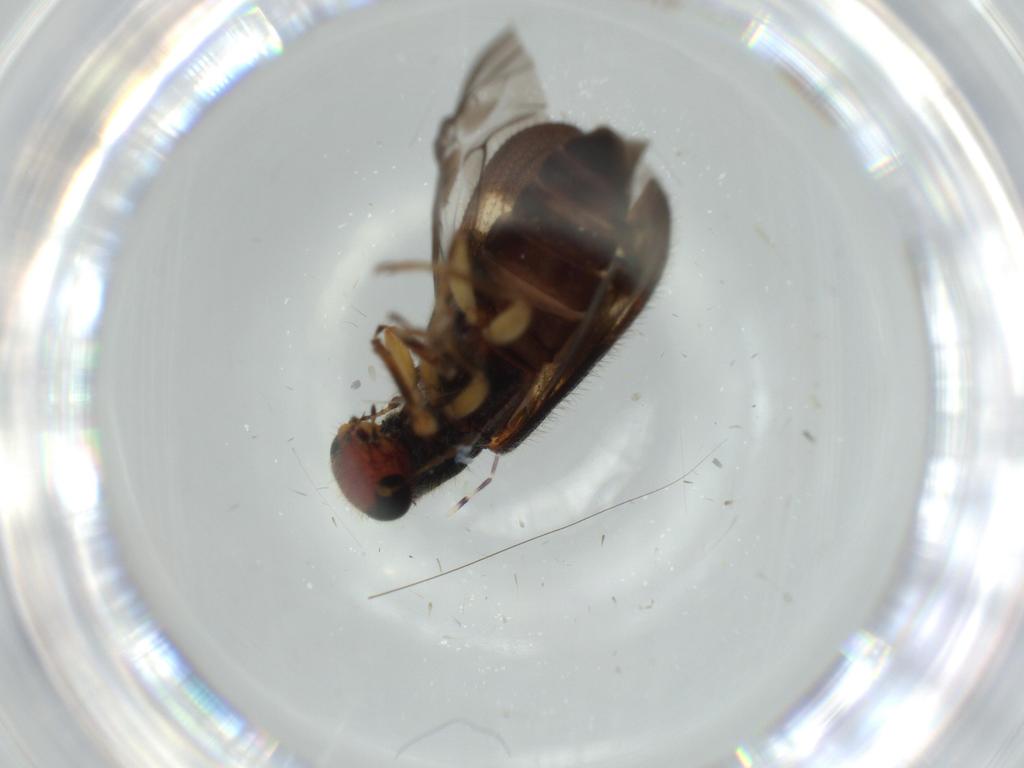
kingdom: Animalia
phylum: Arthropoda
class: Insecta
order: Coleoptera
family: Cleridae
